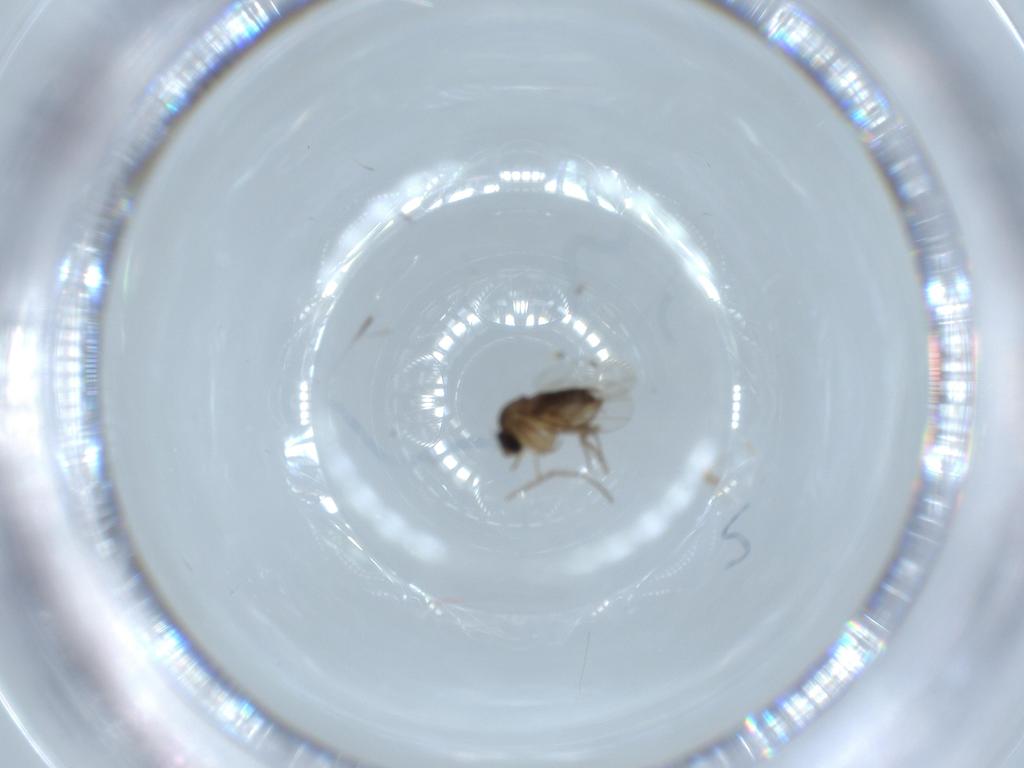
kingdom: Animalia
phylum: Arthropoda
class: Insecta
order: Diptera
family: Cecidomyiidae
